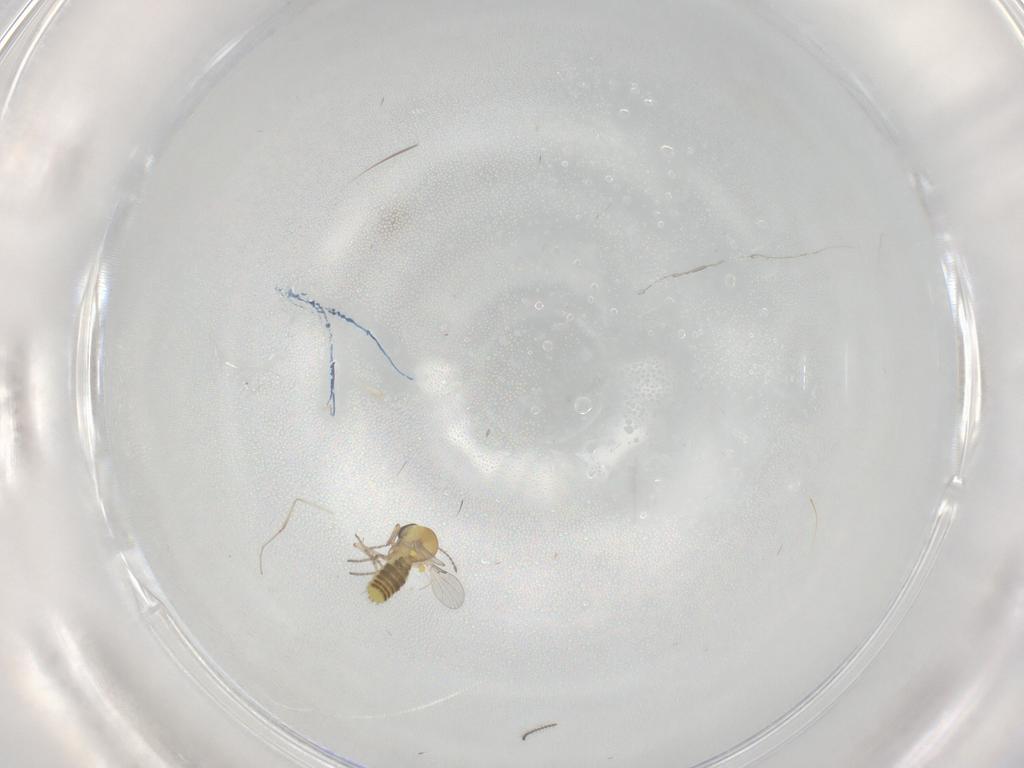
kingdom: Animalia
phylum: Arthropoda
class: Insecta
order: Diptera
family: Ceratopogonidae
